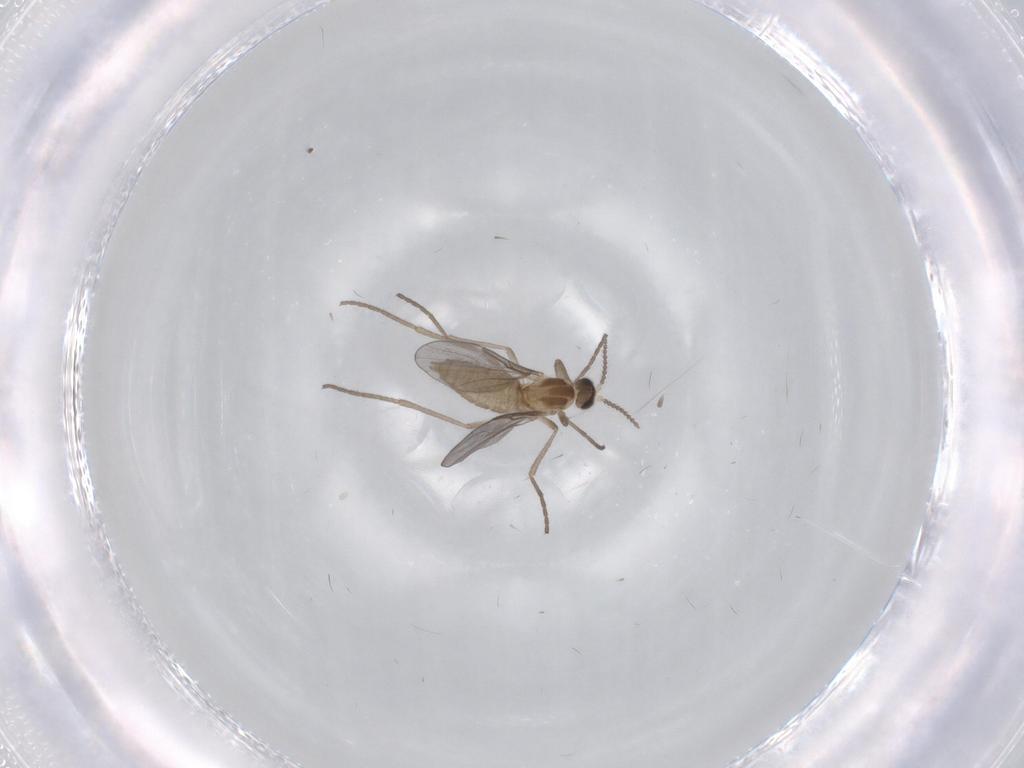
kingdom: Animalia
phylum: Arthropoda
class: Insecta
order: Diptera
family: Cecidomyiidae
